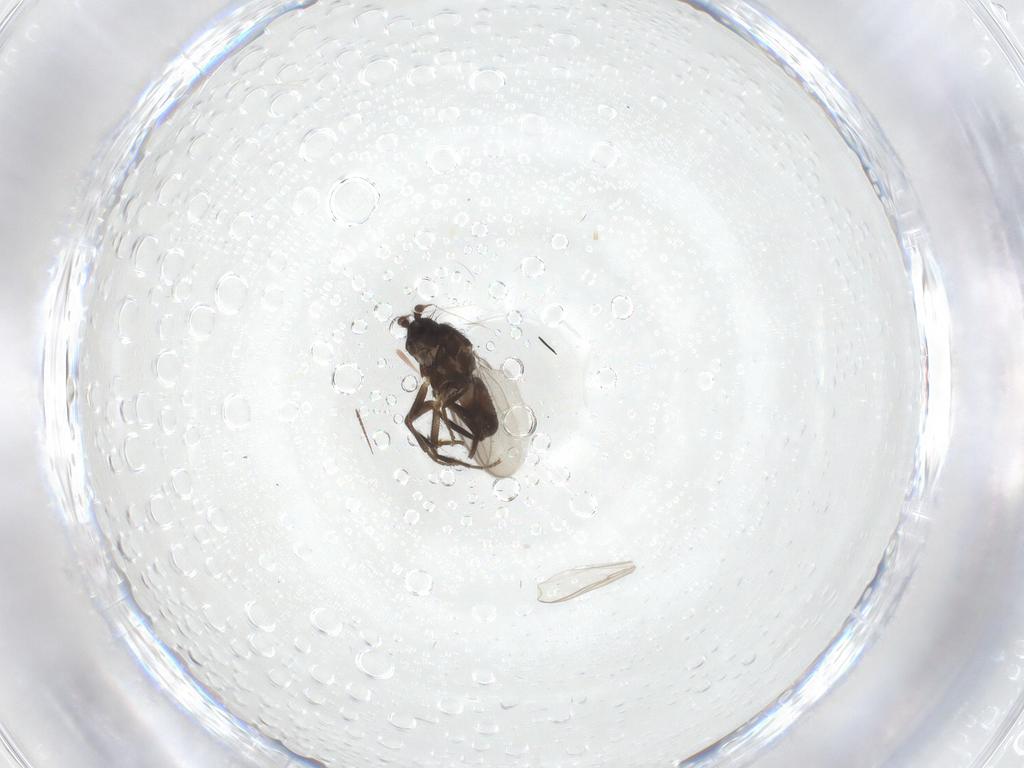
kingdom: Animalia
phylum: Arthropoda
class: Insecta
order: Diptera
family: Sphaeroceridae
